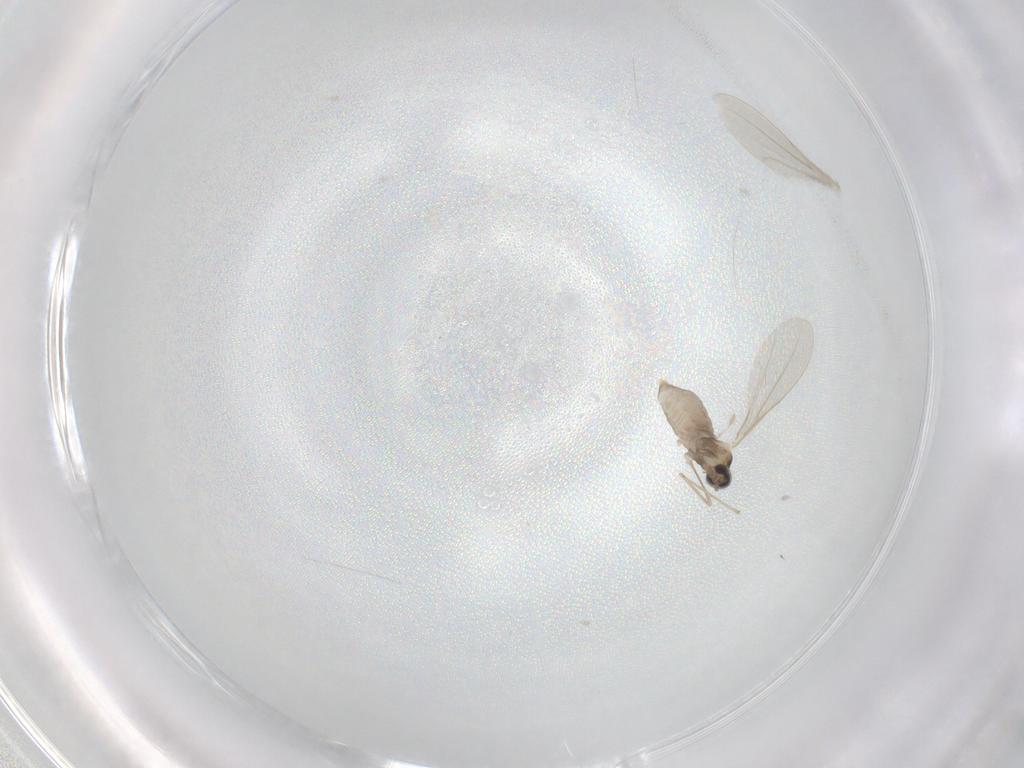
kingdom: Animalia
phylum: Arthropoda
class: Insecta
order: Diptera
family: Cecidomyiidae
